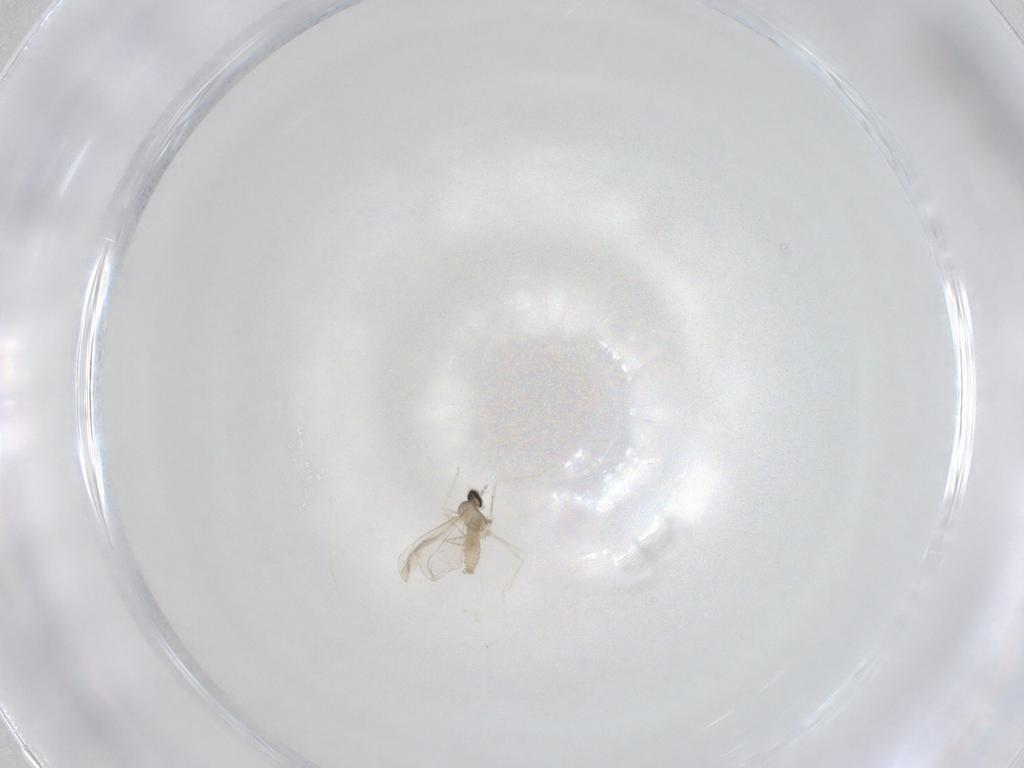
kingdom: Animalia
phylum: Arthropoda
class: Insecta
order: Diptera
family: Cecidomyiidae
